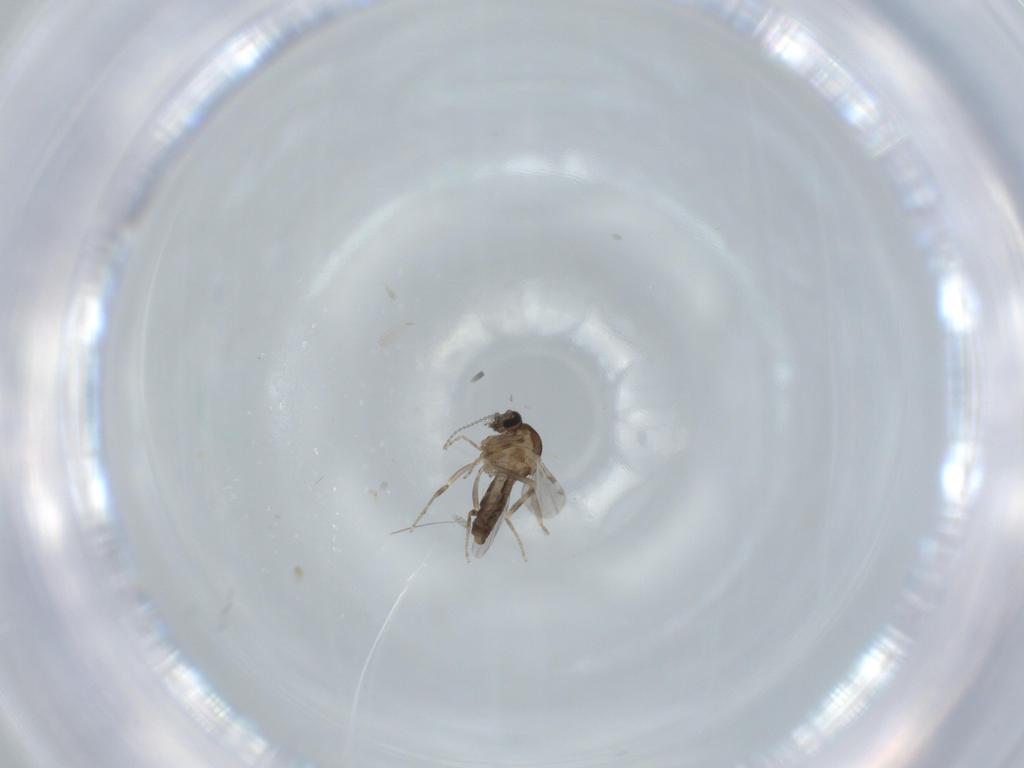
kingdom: Animalia
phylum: Arthropoda
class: Insecta
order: Diptera
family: Ceratopogonidae
